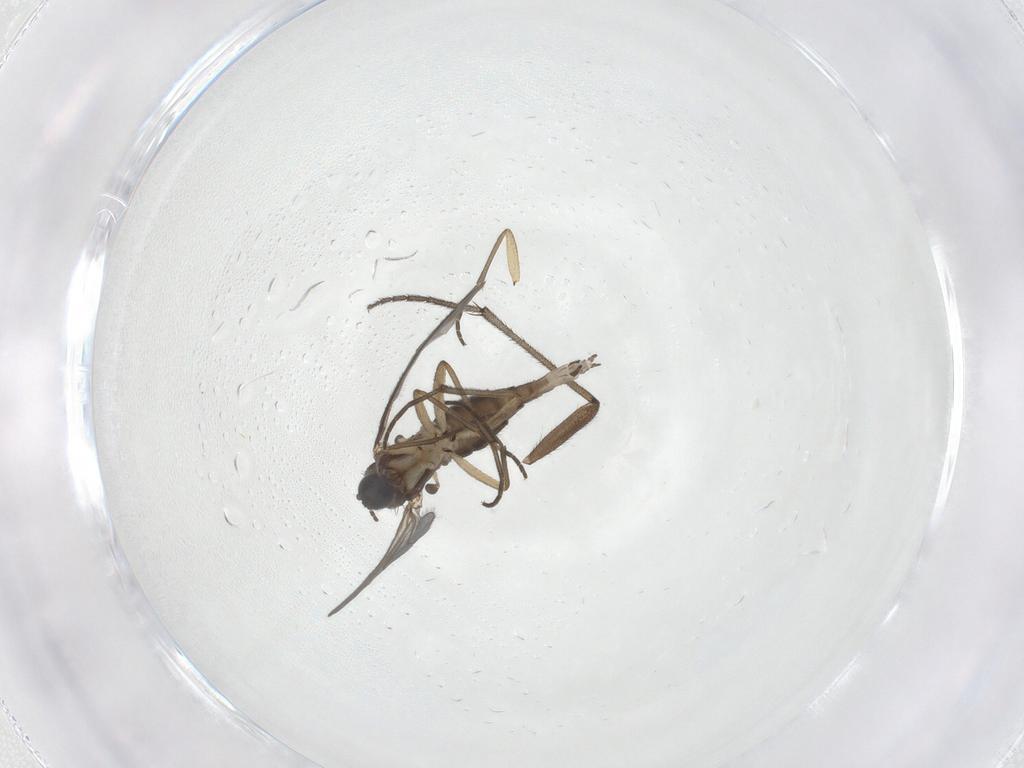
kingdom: Animalia
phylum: Arthropoda
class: Insecta
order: Diptera
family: Sciaridae
